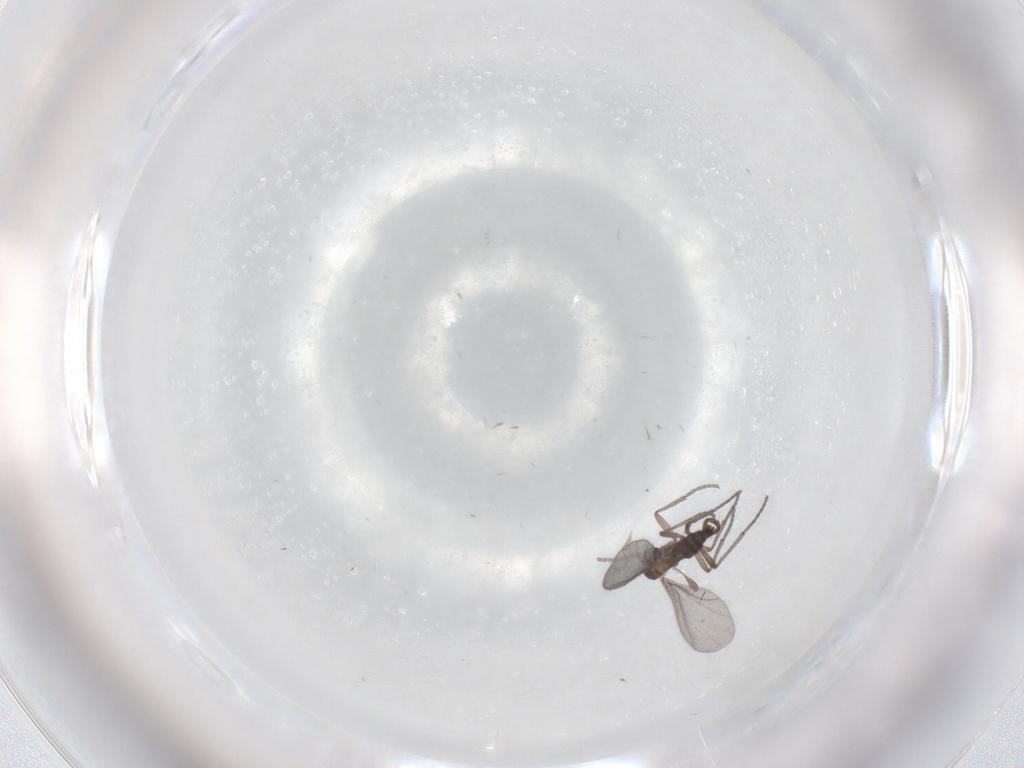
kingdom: Animalia
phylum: Arthropoda
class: Insecta
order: Diptera
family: Sciaridae
